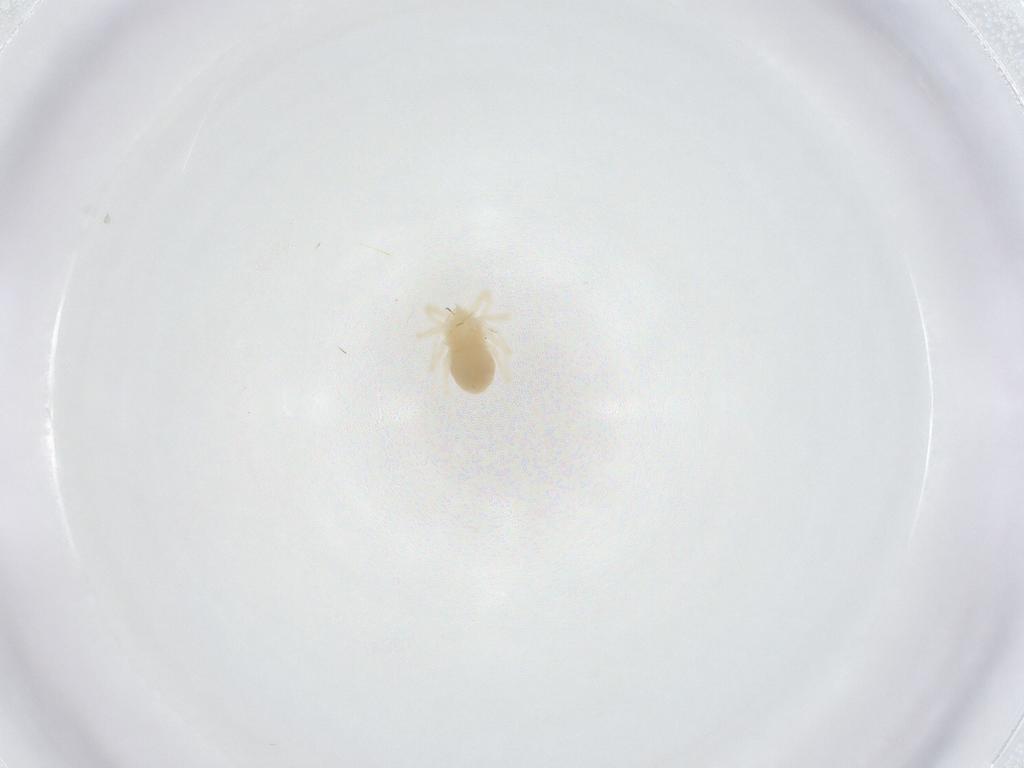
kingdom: Animalia
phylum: Arthropoda
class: Arachnida
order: Trombidiformes
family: Anystidae
